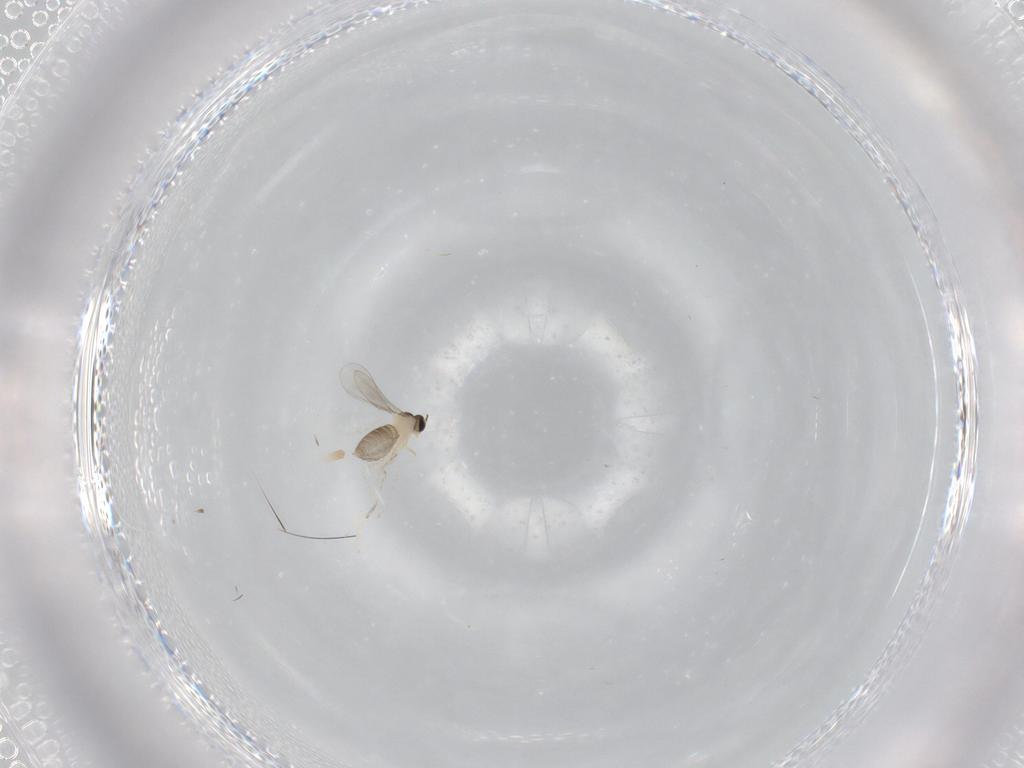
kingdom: Animalia
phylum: Arthropoda
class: Insecta
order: Diptera
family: Cecidomyiidae
